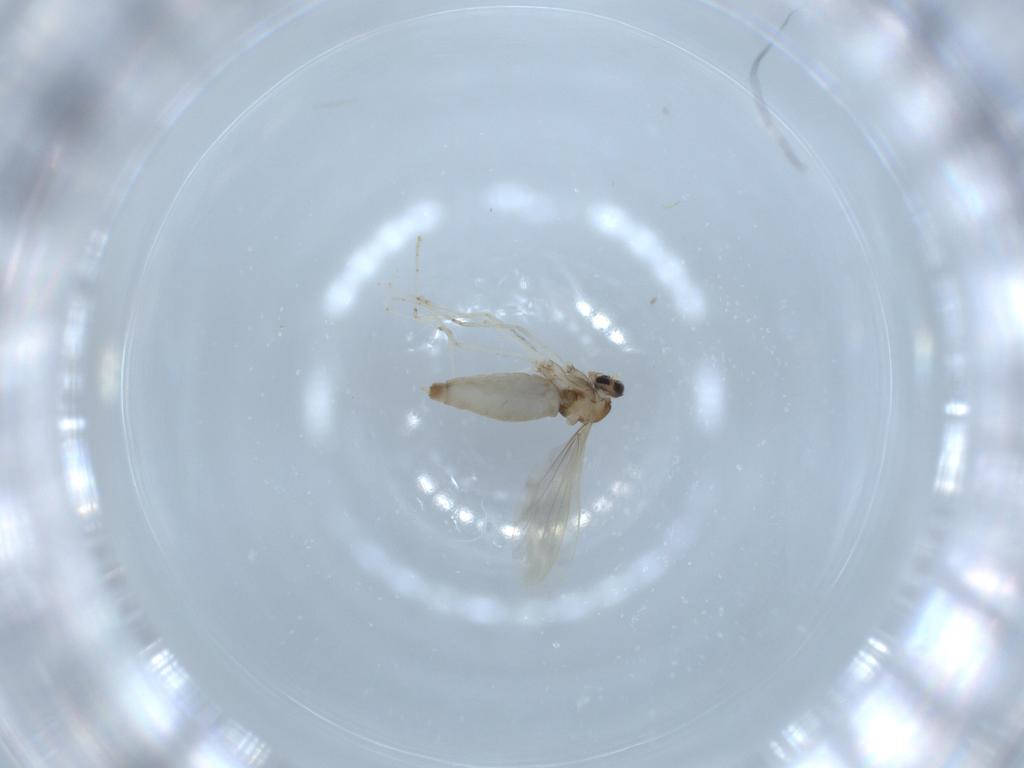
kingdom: Animalia
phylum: Arthropoda
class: Insecta
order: Diptera
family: Cecidomyiidae
